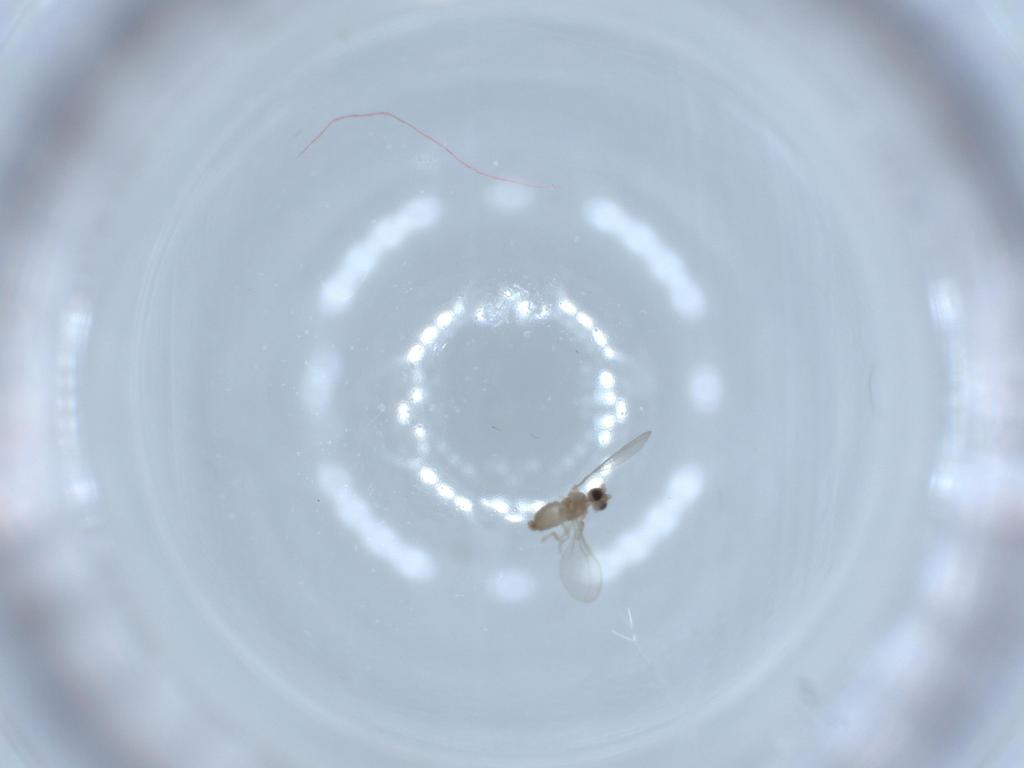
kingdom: Animalia
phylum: Arthropoda
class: Insecta
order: Diptera
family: Cecidomyiidae
